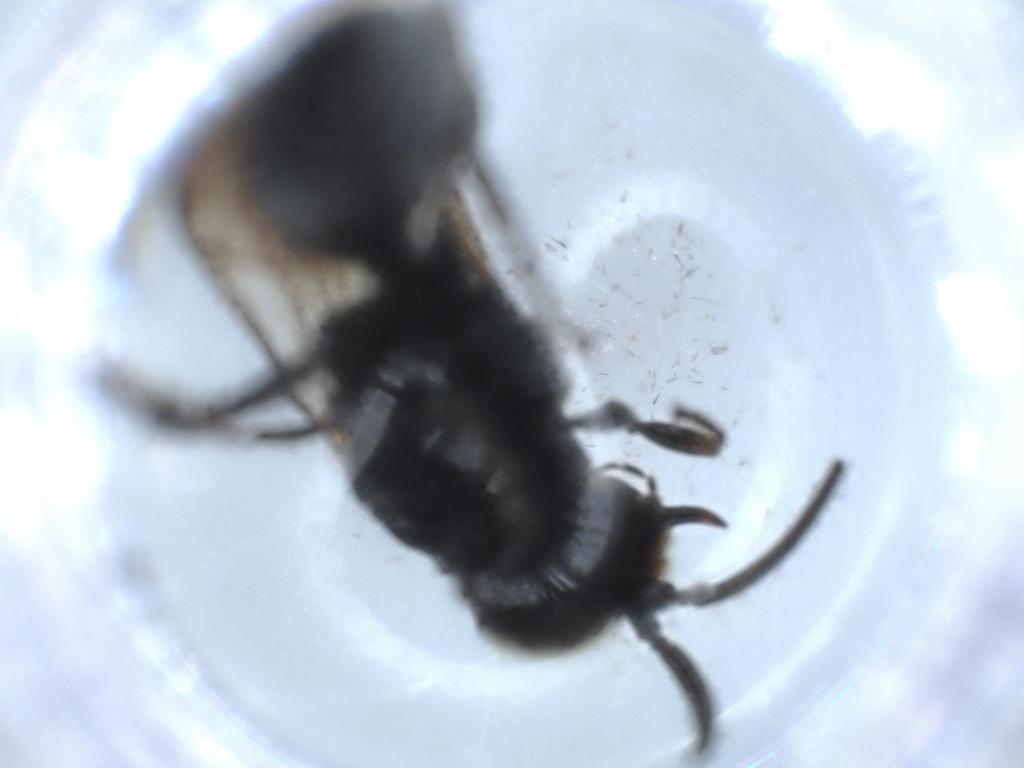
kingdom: Animalia
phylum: Arthropoda
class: Insecta
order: Hymenoptera
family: Tiphiidae
